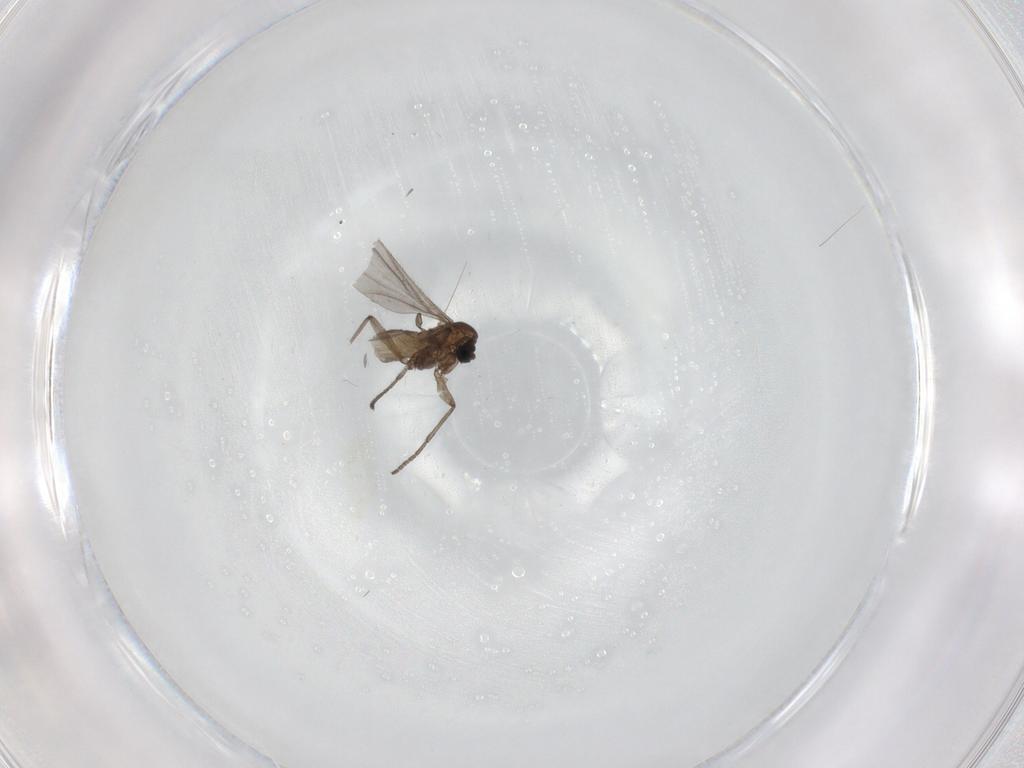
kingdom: Animalia
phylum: Arthropoda
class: Insecta
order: Diptera
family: Sciaridae
